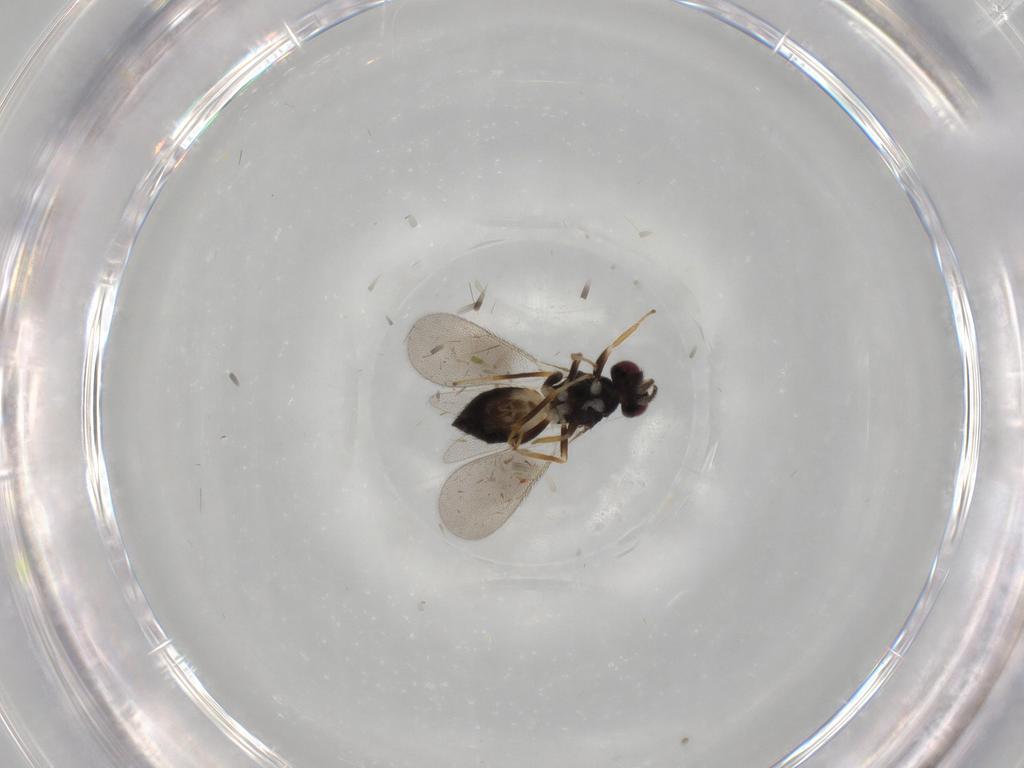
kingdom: Animalia
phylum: Arthropoda
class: Insecta
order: Hymenoptera
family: Eulophidae
